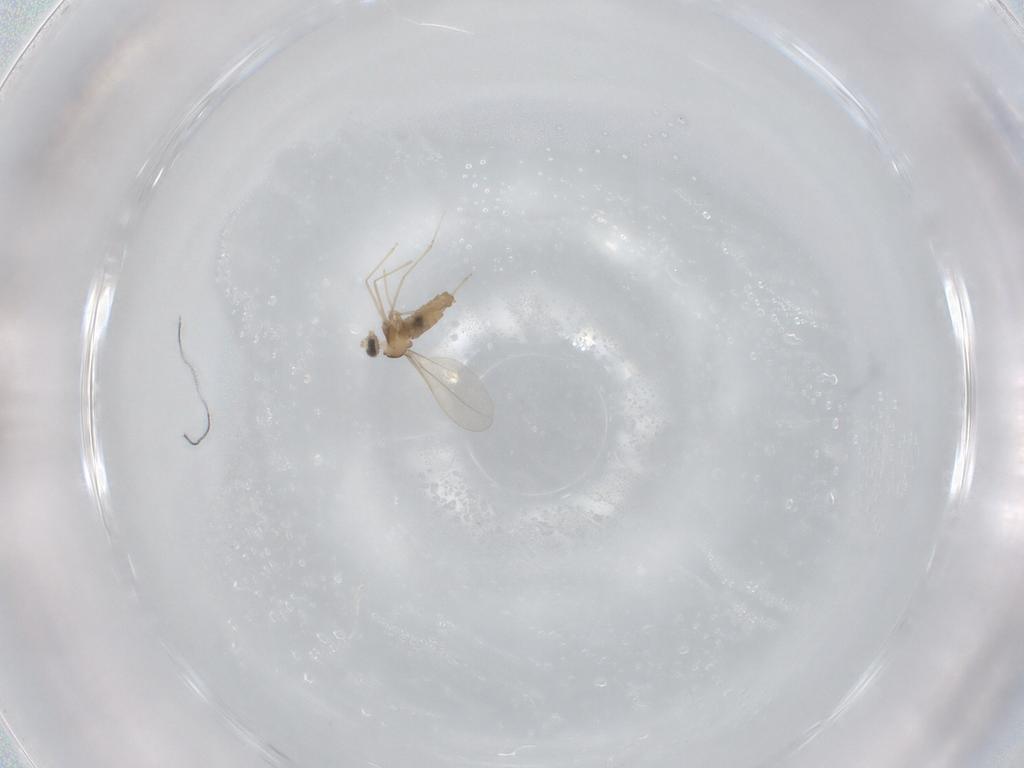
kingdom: Animalia
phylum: Arthropoda
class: Insecta
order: Diptera
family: Cecidomyiidae
